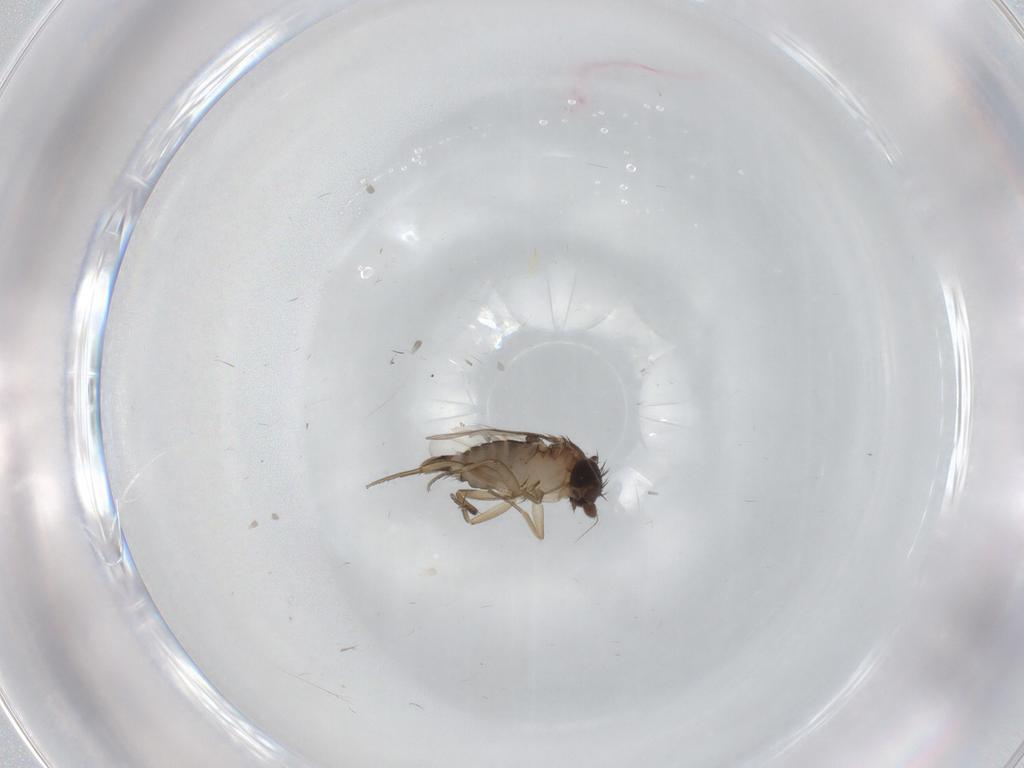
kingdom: Animalia
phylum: Arthropoda
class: Insecta
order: Diptera
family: Phoridae
